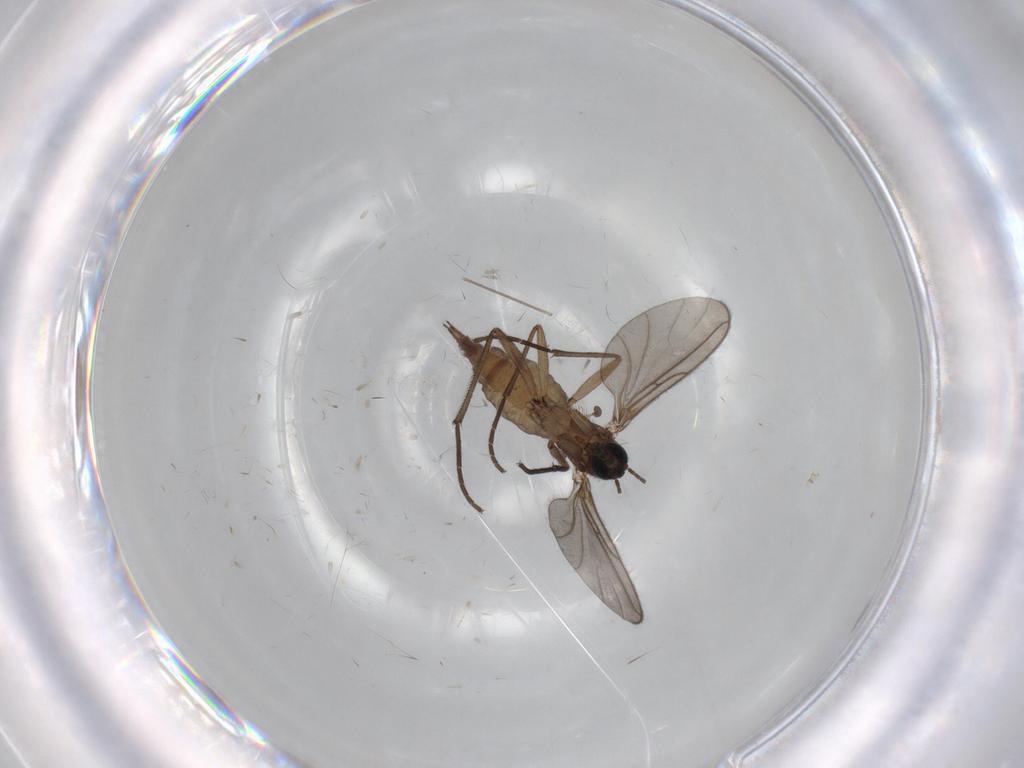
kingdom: Animalia
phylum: Arthropoda
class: Insecta
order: Diptera
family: Sciaridae
